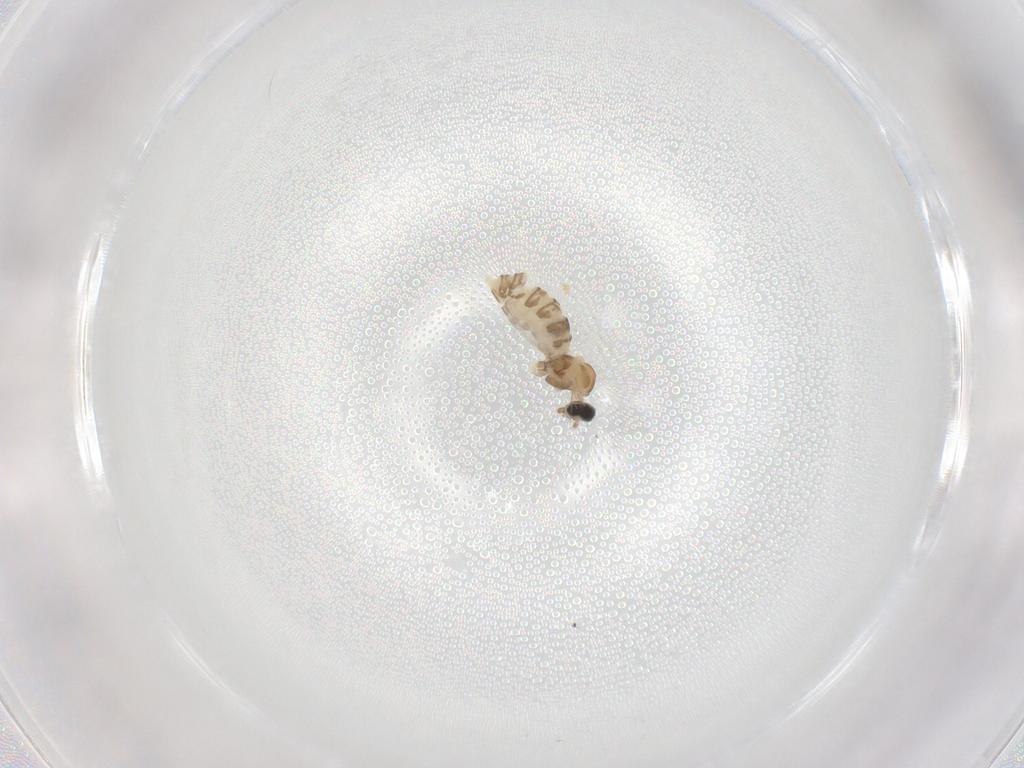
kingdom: Animalia
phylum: Arthropoda
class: Insecta
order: Diptera
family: Cecidomyiidae
